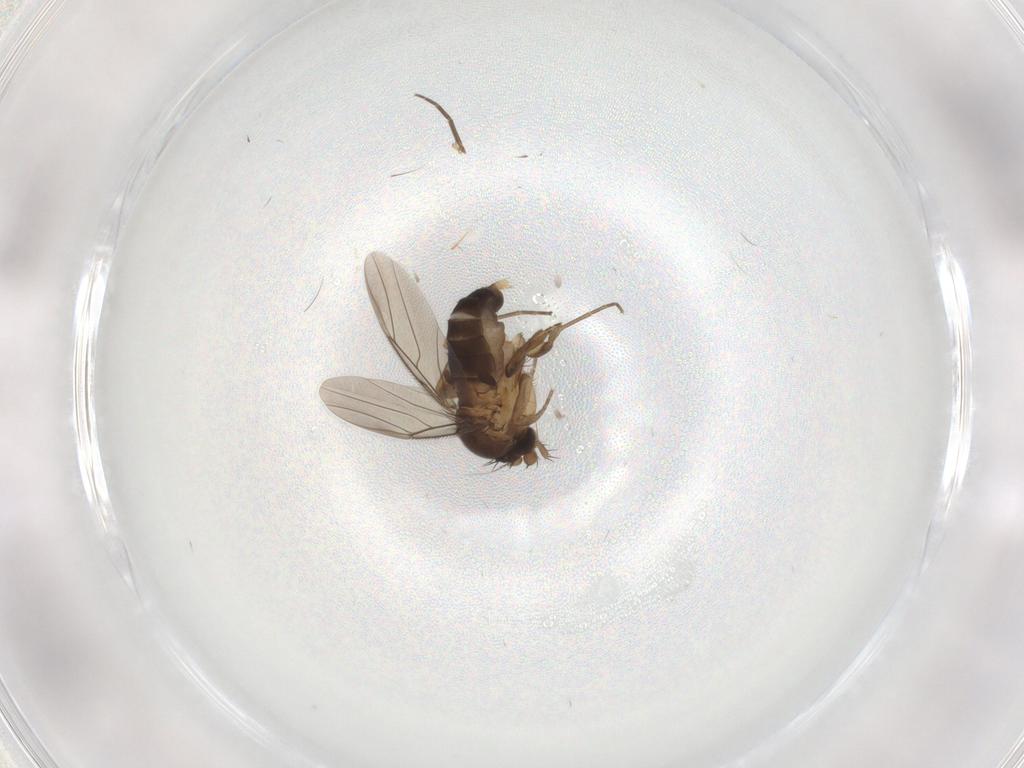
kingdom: Animalia
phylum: Arthropoda
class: Insecta
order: Diptera
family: Phoridae
